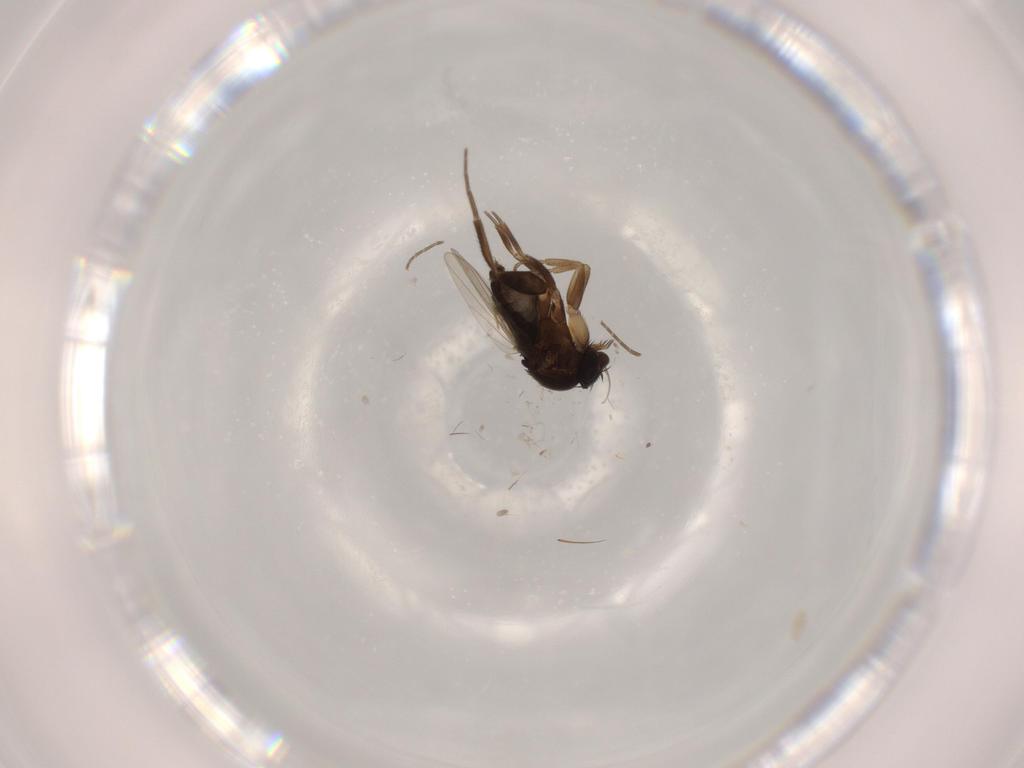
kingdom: Animalia
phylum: Arthropoda
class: Insecta
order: Diptera
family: Phoridae
